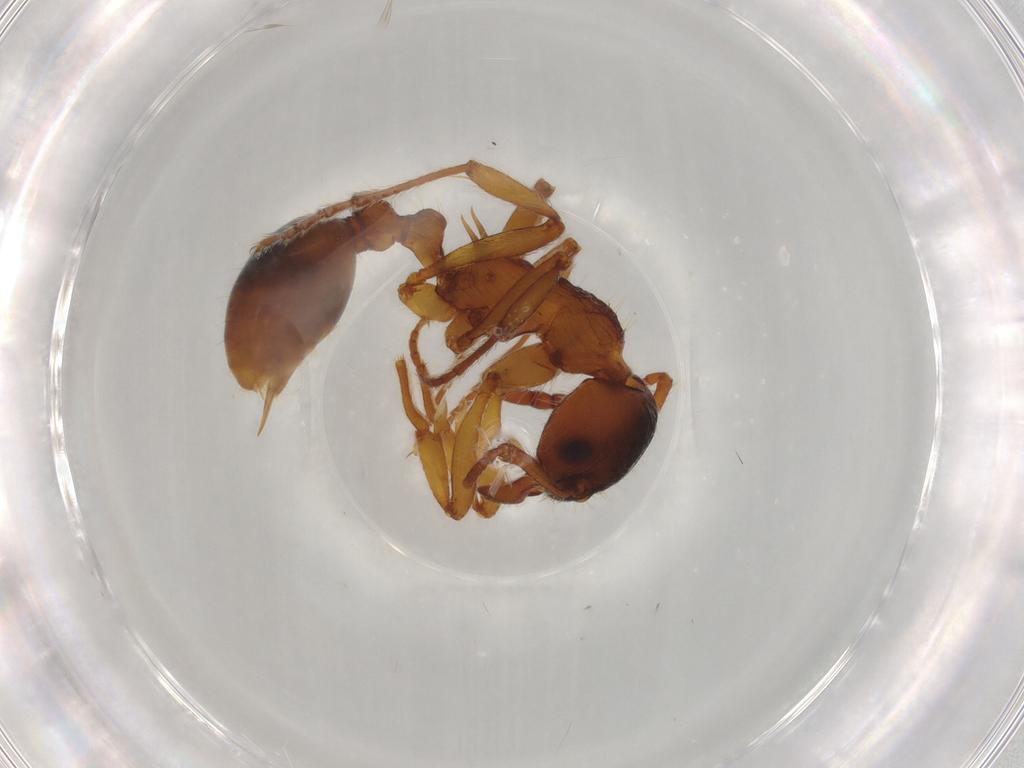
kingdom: Animalia
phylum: Arthropoda
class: Insecta
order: Hymenoptera
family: Formicidae
